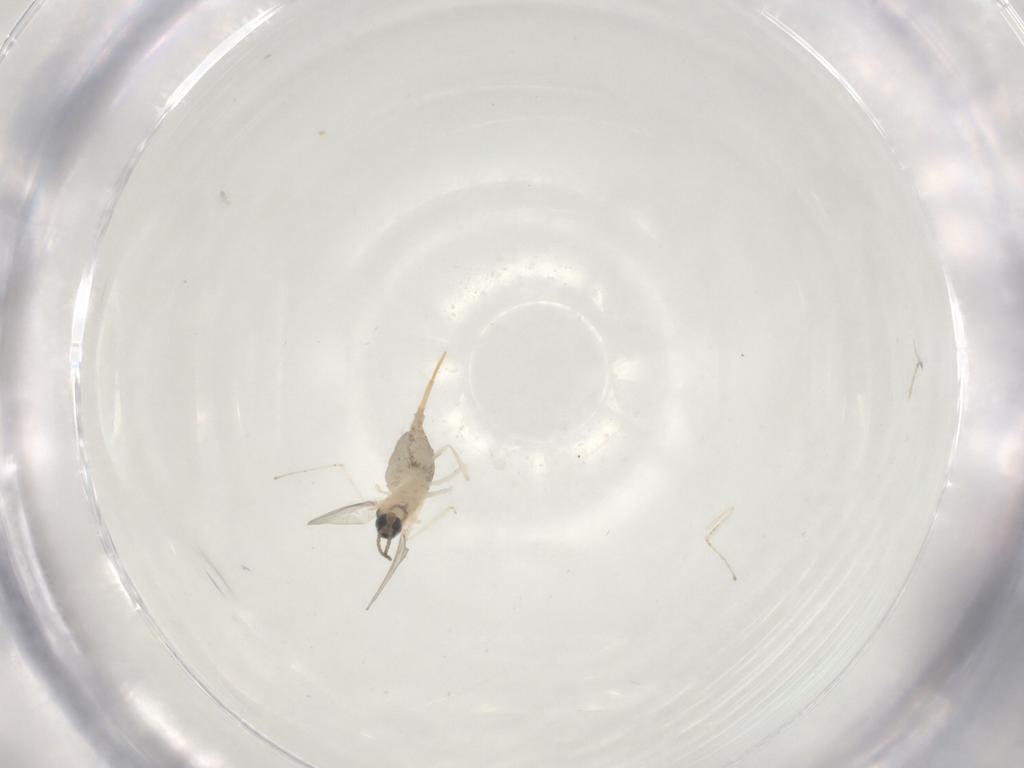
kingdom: Animalia
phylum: Arthropoda
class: Insecta
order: Diptera
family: Cecidomyiidae
